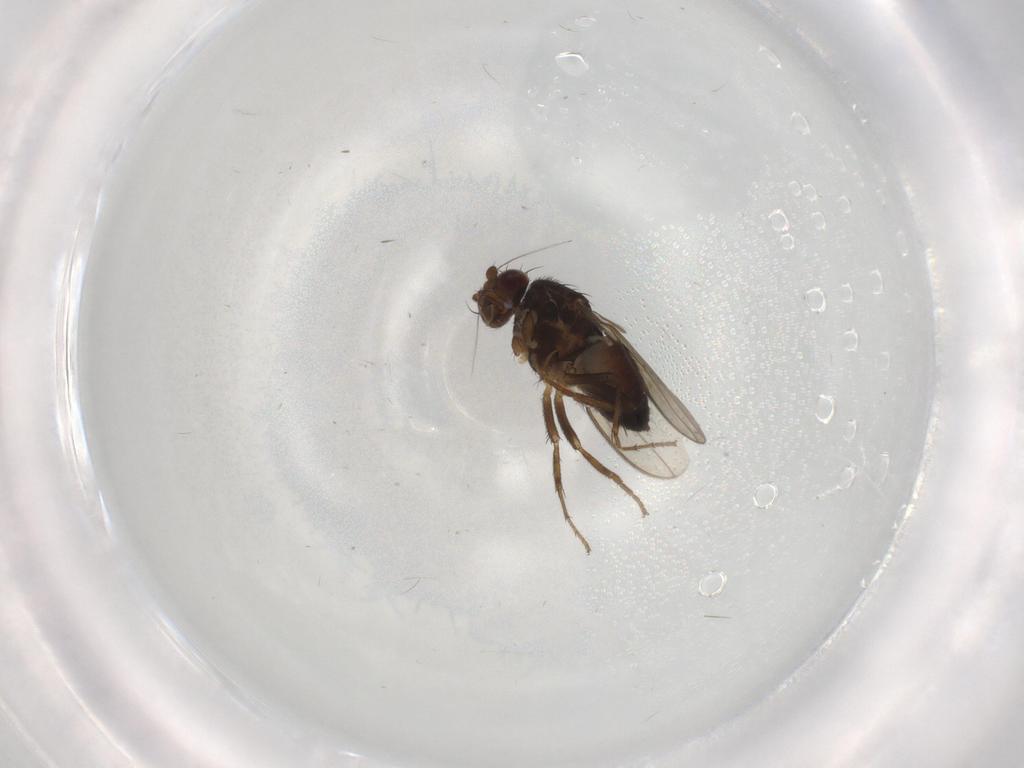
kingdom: Animalia
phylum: Arthropoda
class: Insecta
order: Diptera
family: Sphaeroceridae
